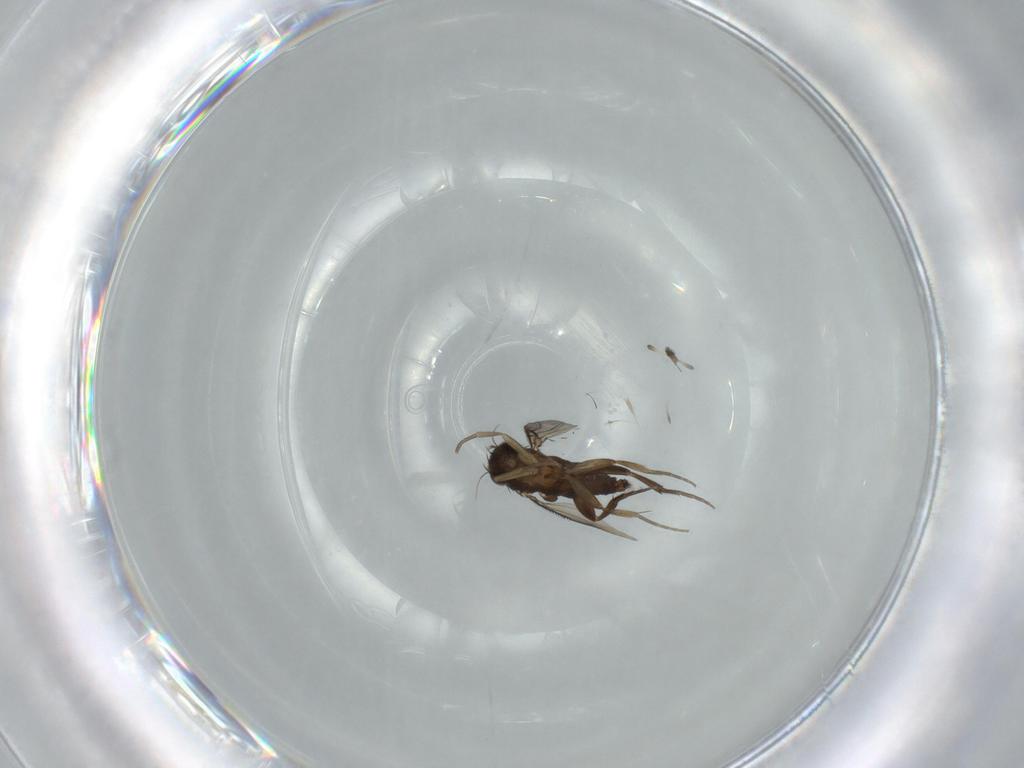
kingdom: Animalia
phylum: Arthropoda
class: Insecta
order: Diptera
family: Phoridae
